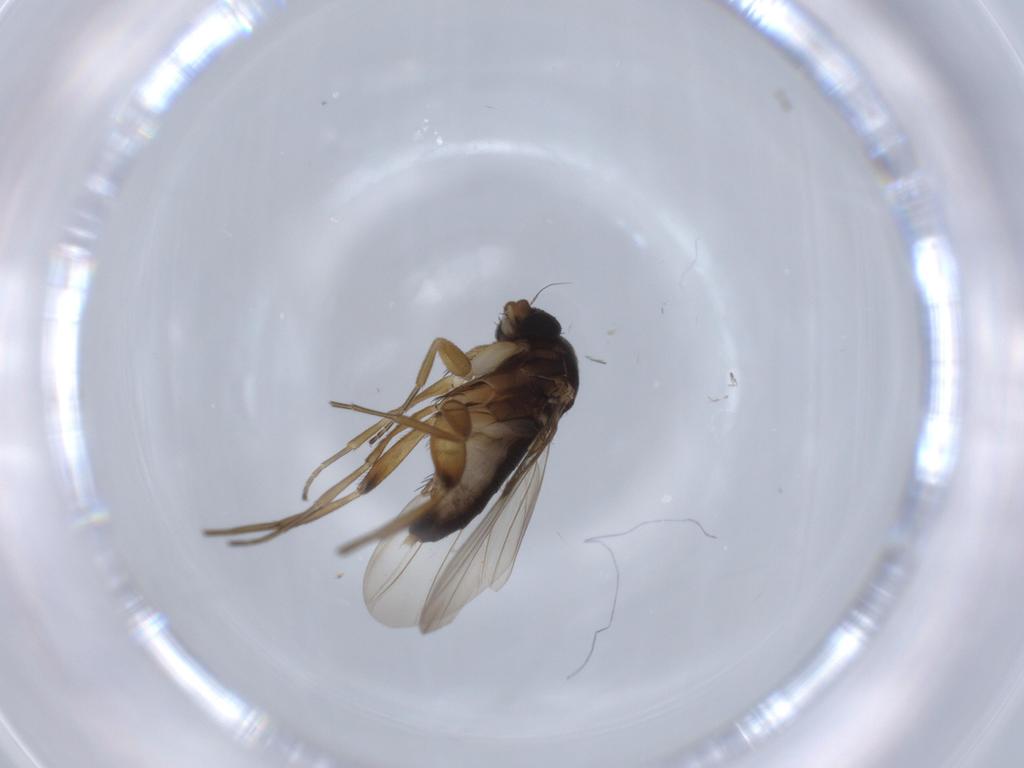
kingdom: Animalia
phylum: Arthropoda
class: Insecta
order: Diptera
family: Phoridae
